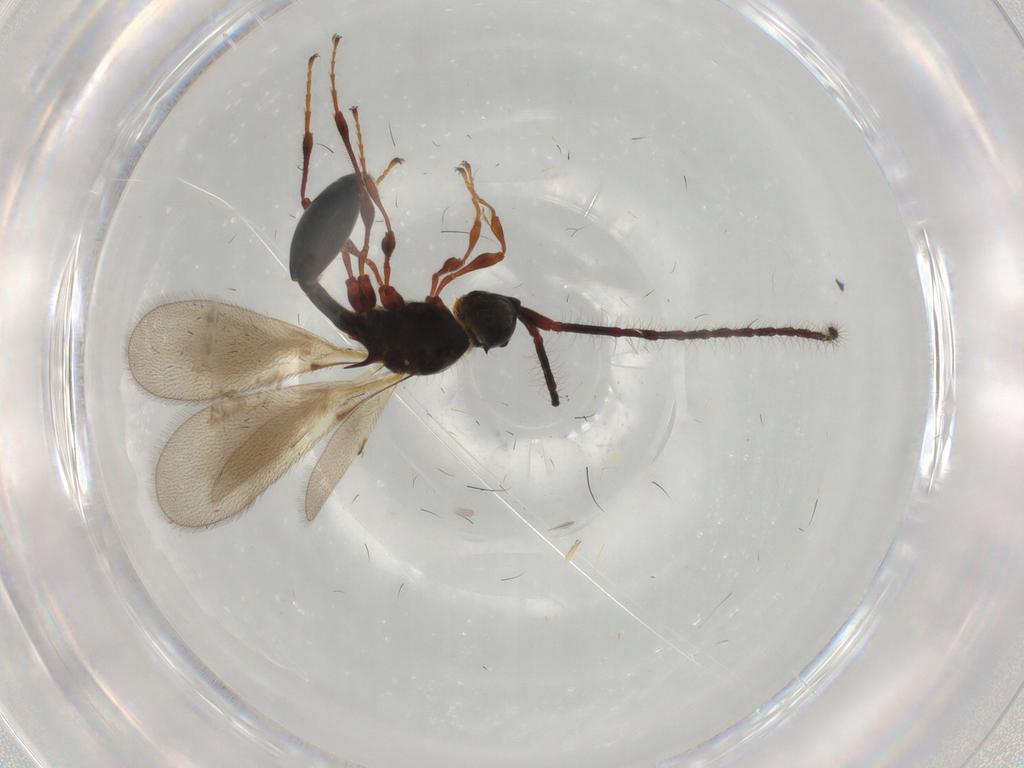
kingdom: Animalia
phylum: Arthropoda
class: Insecta
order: Hymenoptera
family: Diapriidae
